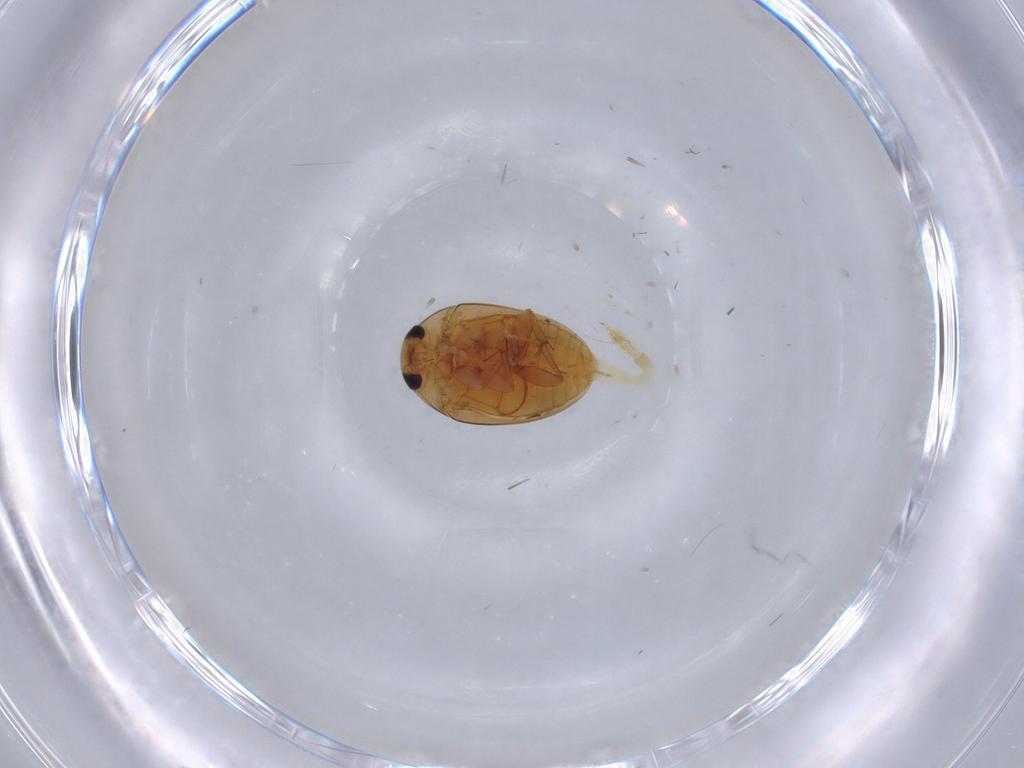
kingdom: Animalia
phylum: Arthropoda
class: Insecta
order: Coleoptera
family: Phalacridae
